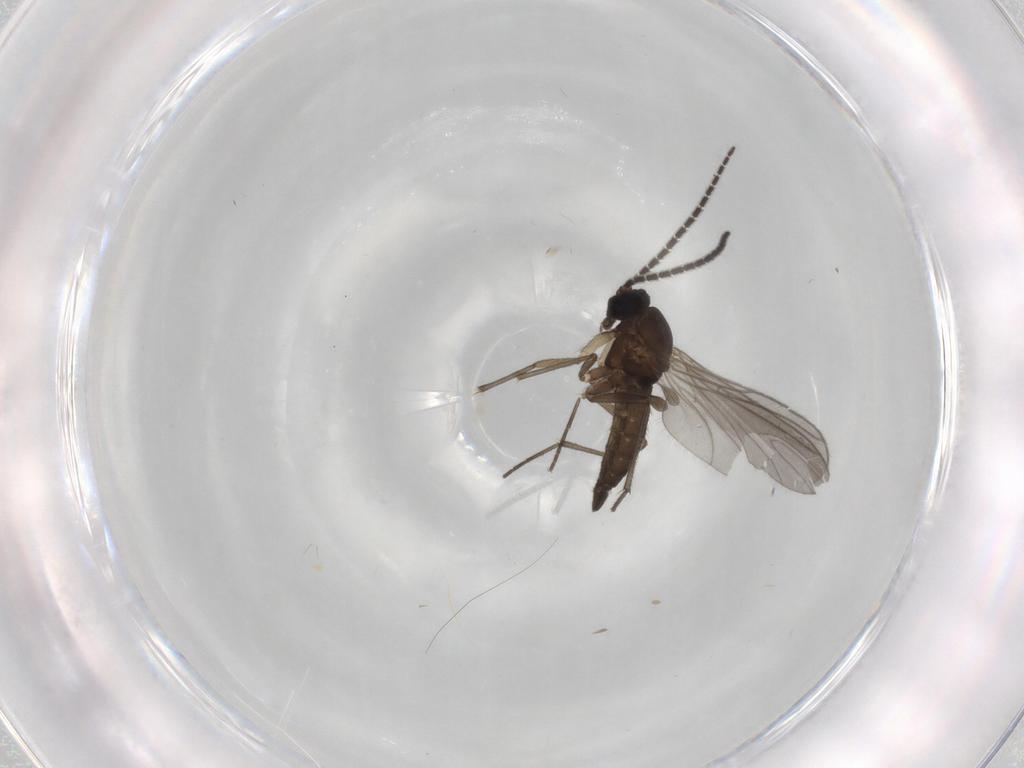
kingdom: Animalia
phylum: Arthropoda
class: Insecta
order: Diptera
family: Sciaridae
